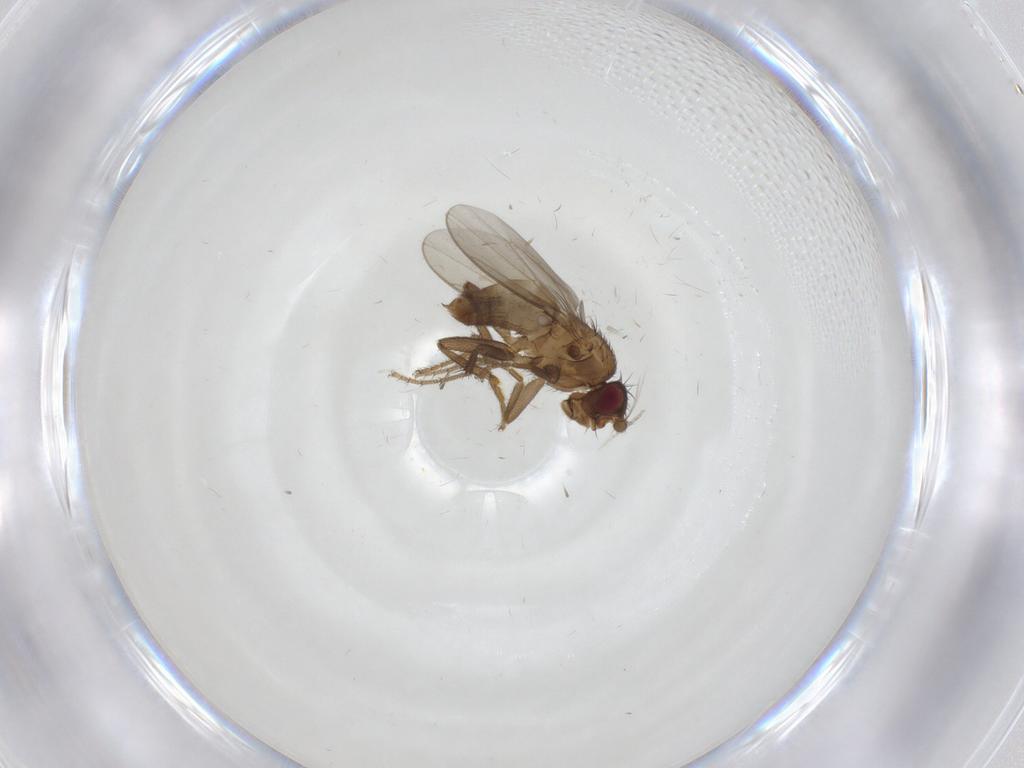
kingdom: Animalia
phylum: Arthropoda
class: Insecta
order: Diptera
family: Cecidomyiidae
